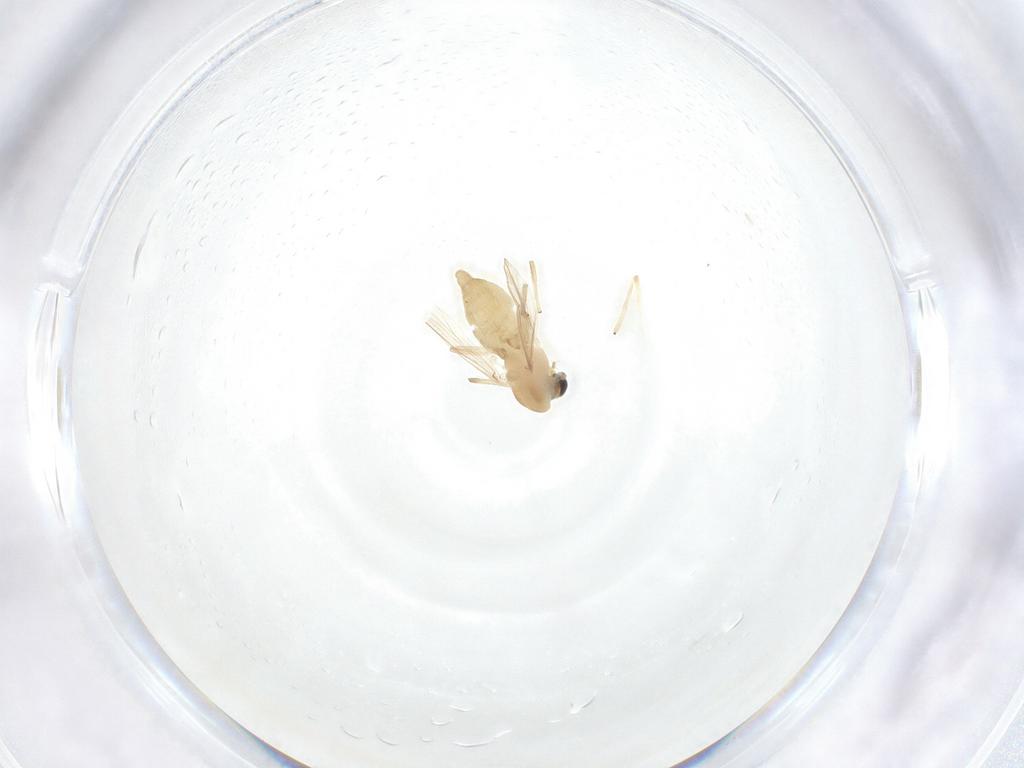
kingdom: Animalia
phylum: Arthropoda
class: Insecta
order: Diptera
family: Chironomidae
